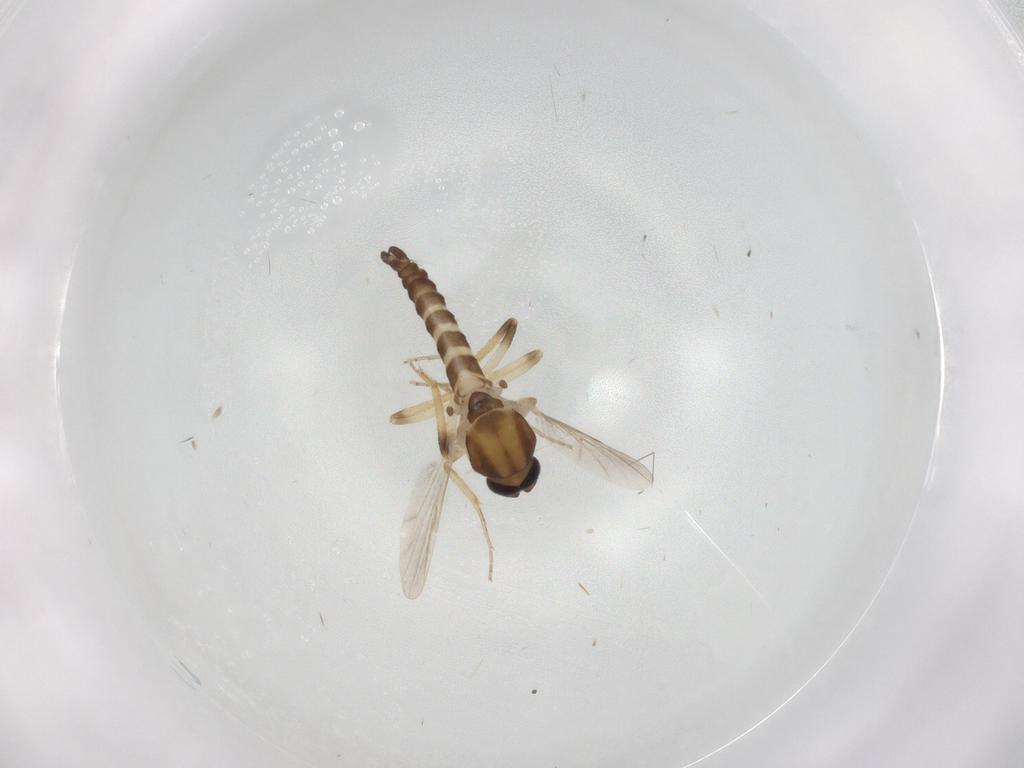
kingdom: Animalia
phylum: Arthropoda
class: Insecta
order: Diptera
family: Ceratopogonidae
